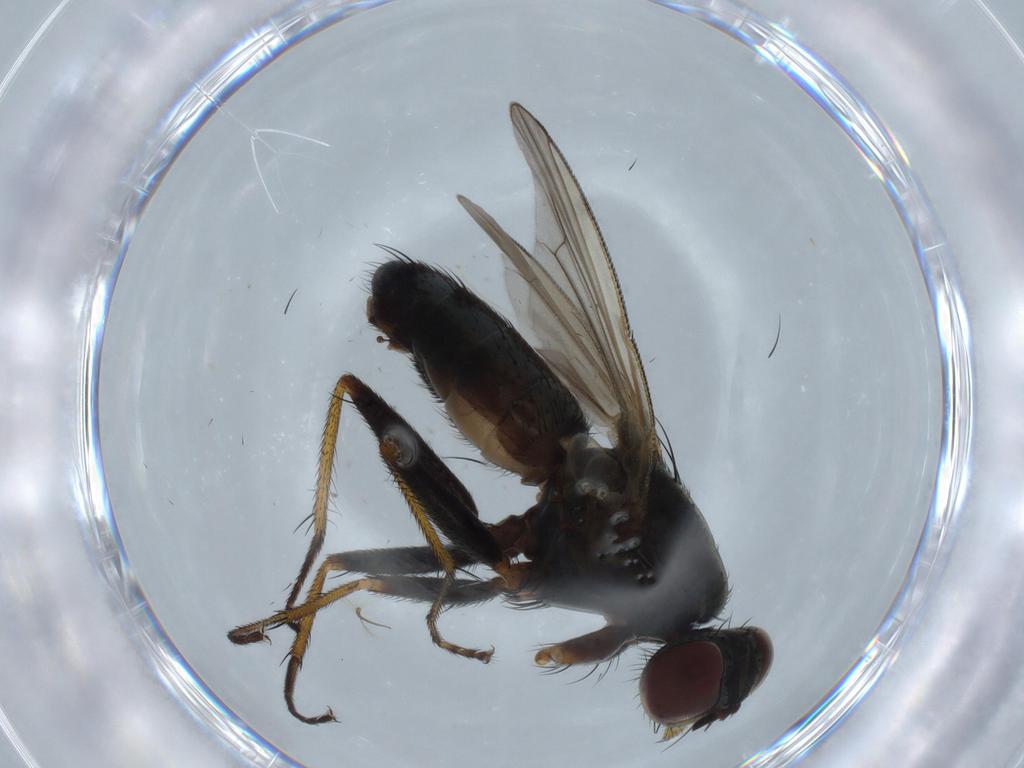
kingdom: Animalia
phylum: Arthropoda
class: Insecta
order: Diptera
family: Muscidae
